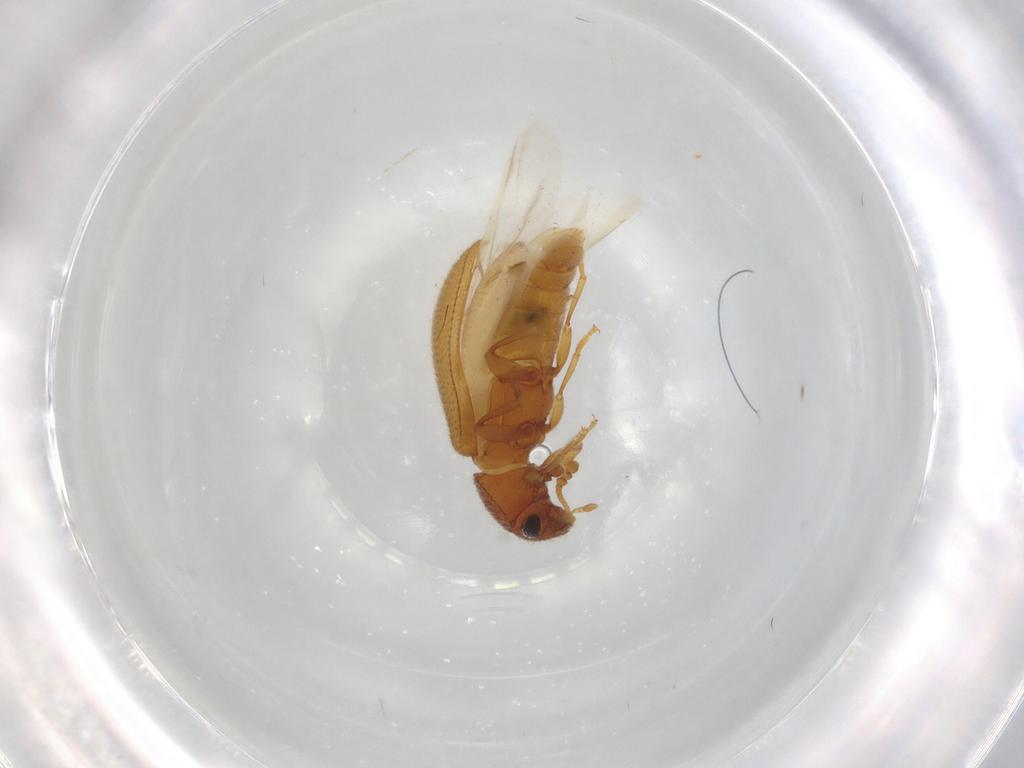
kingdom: Animalia
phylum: Arthropoda
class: Insecta
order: Coleoptera
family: Tenebrionidae
